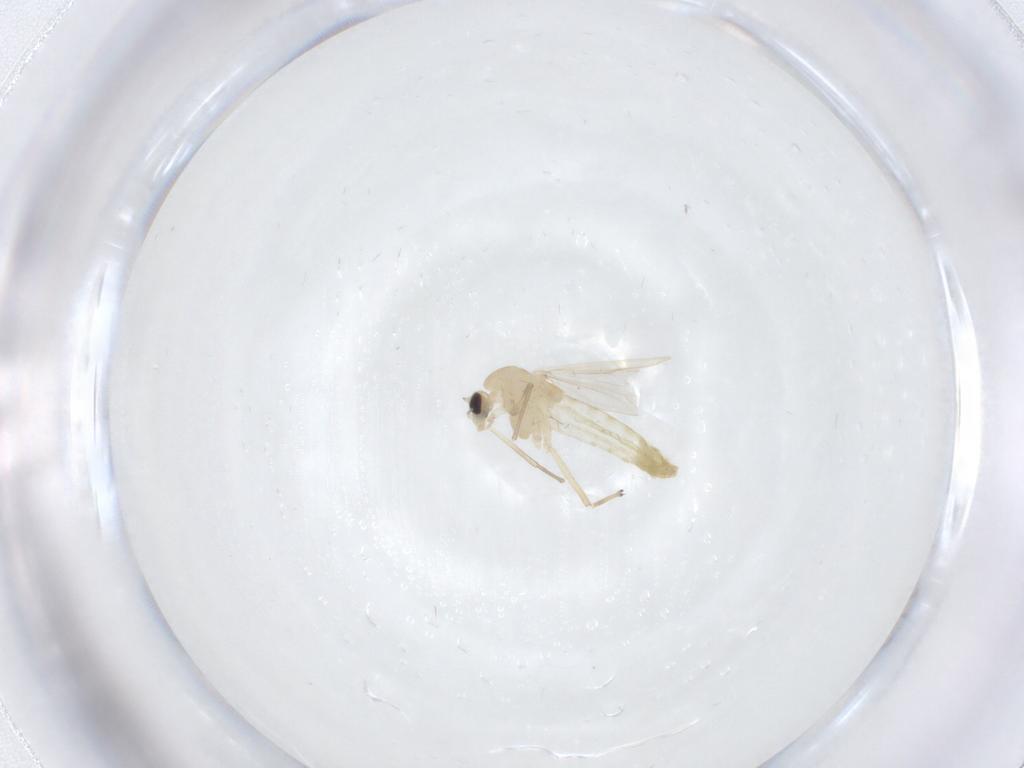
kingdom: Animalia
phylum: Arthropoda
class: Insecta
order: Diptera
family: Chironomidae
